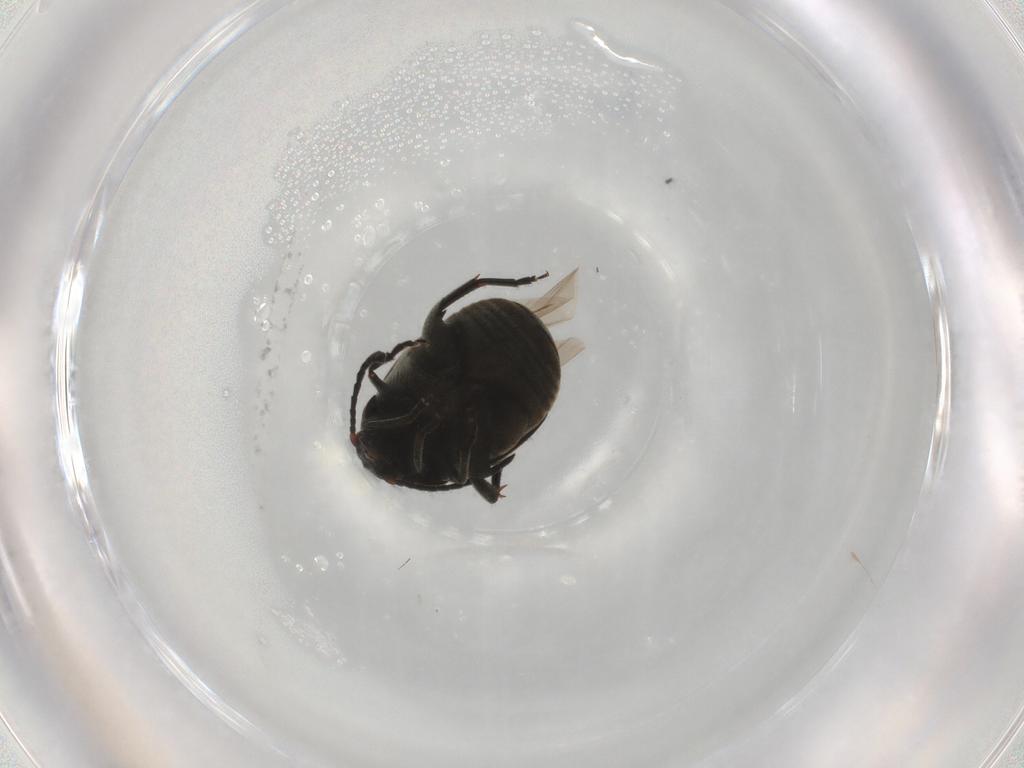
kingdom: Animalia
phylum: Arthropoda
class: Insecta
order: Coleoptera
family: Chrysomelidae
